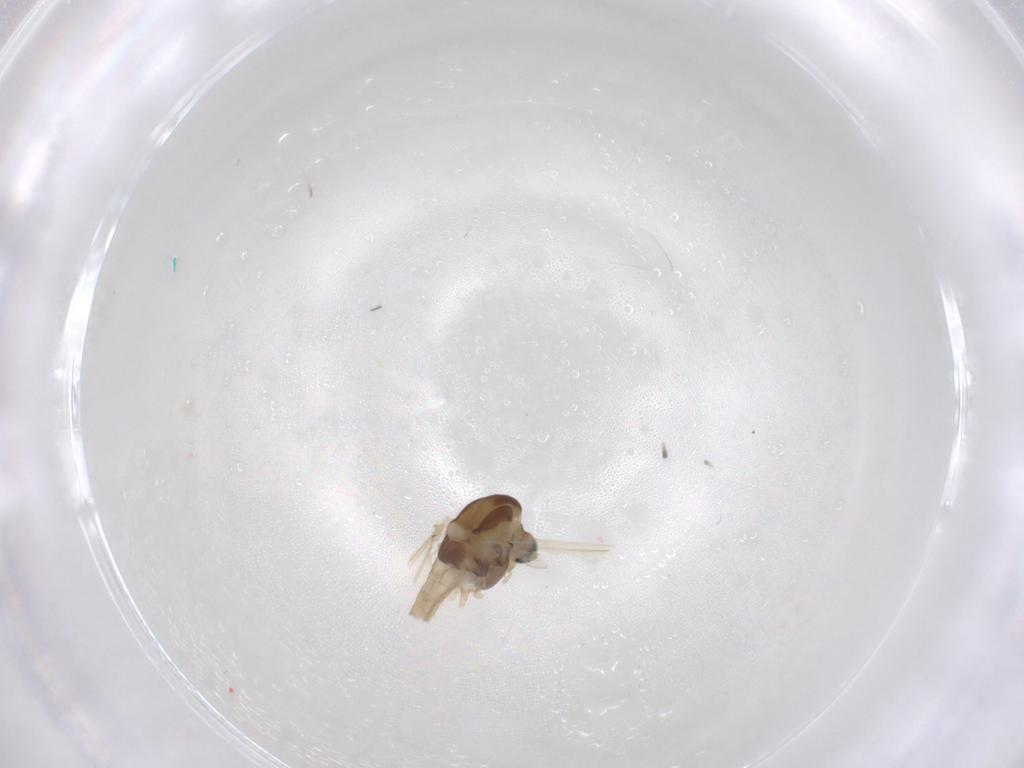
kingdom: Animalia
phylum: Arthropoda
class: Insecta
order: Diptera
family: Chironomidae
